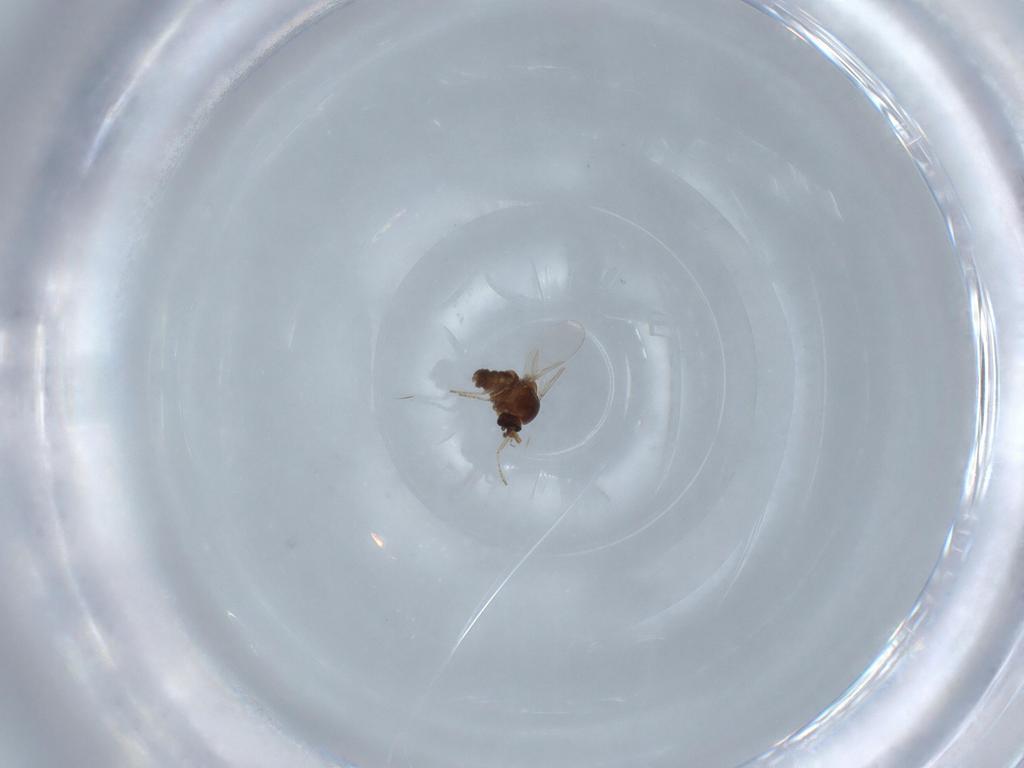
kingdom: Animalia
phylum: Arthropoda
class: Insecta
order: Diptera
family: Ceratopogonidae
